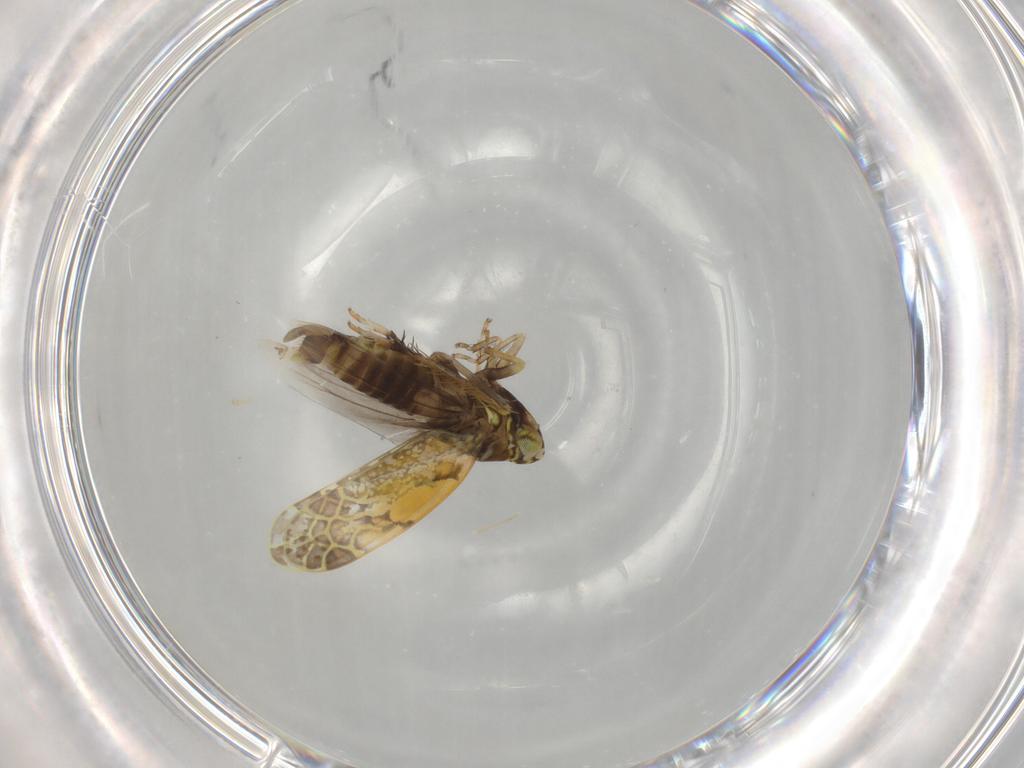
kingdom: Animalia
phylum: Arthropoda
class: Insecta
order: Hemiptera
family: Cicadellidae
